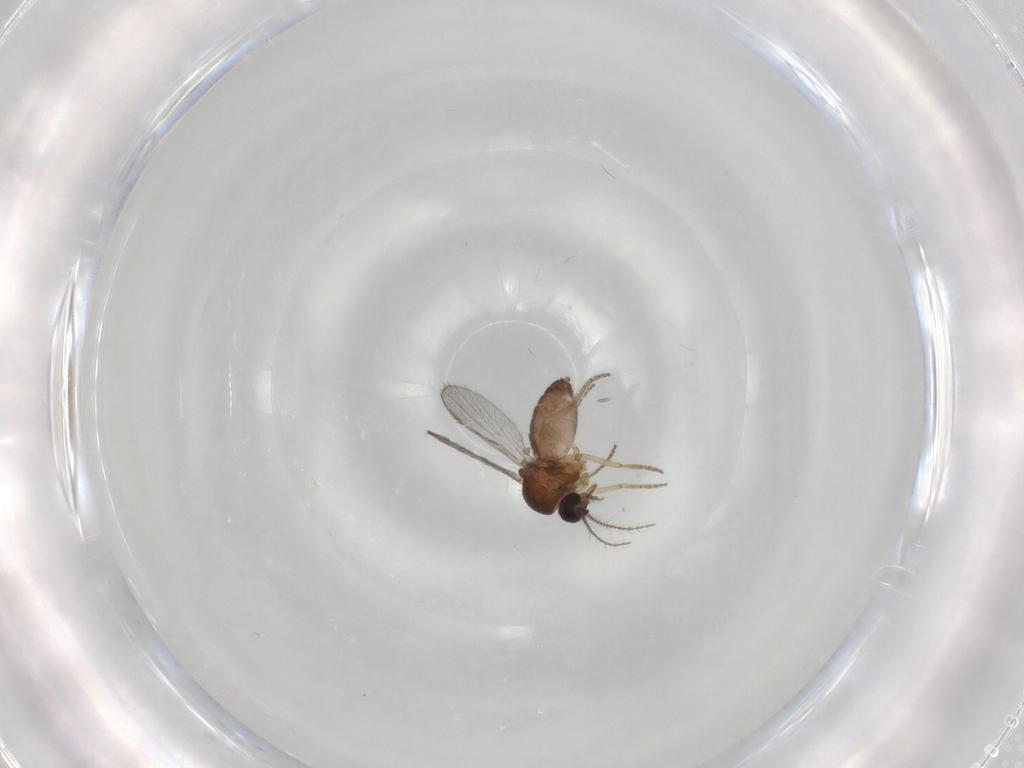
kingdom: Animalia
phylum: Arthropoda
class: Insecta
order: Diptera
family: Ceratopogonidae
